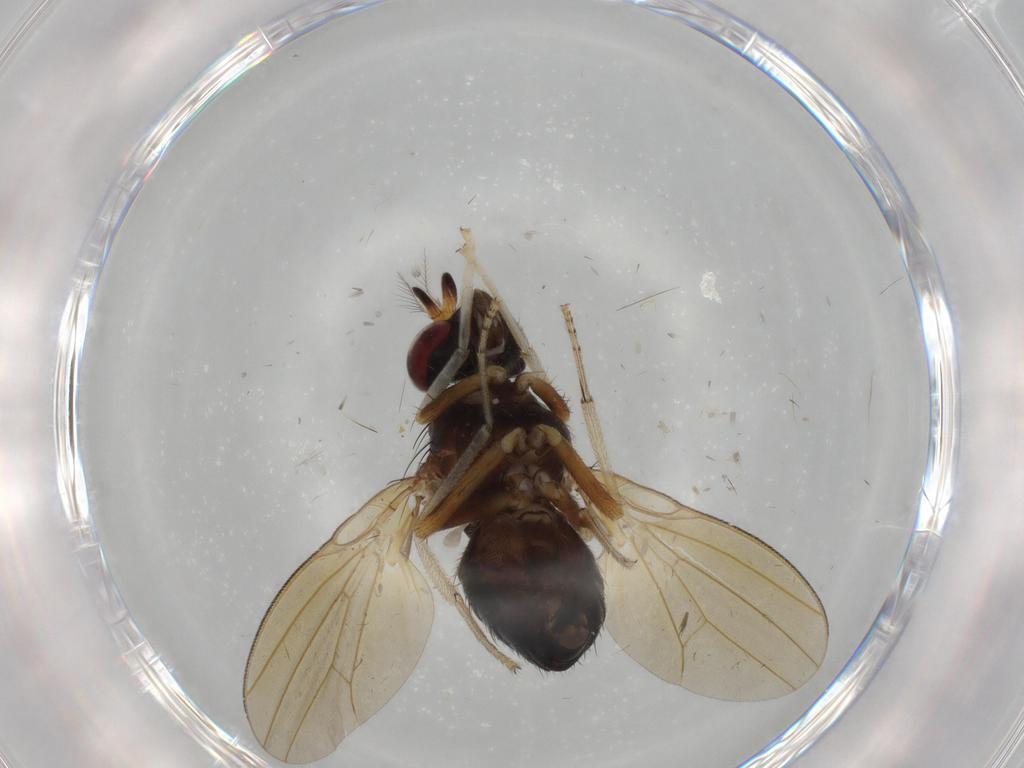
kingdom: Animalia
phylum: Arthropoda
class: Insecta
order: Diptera
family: Lauxaniidae
